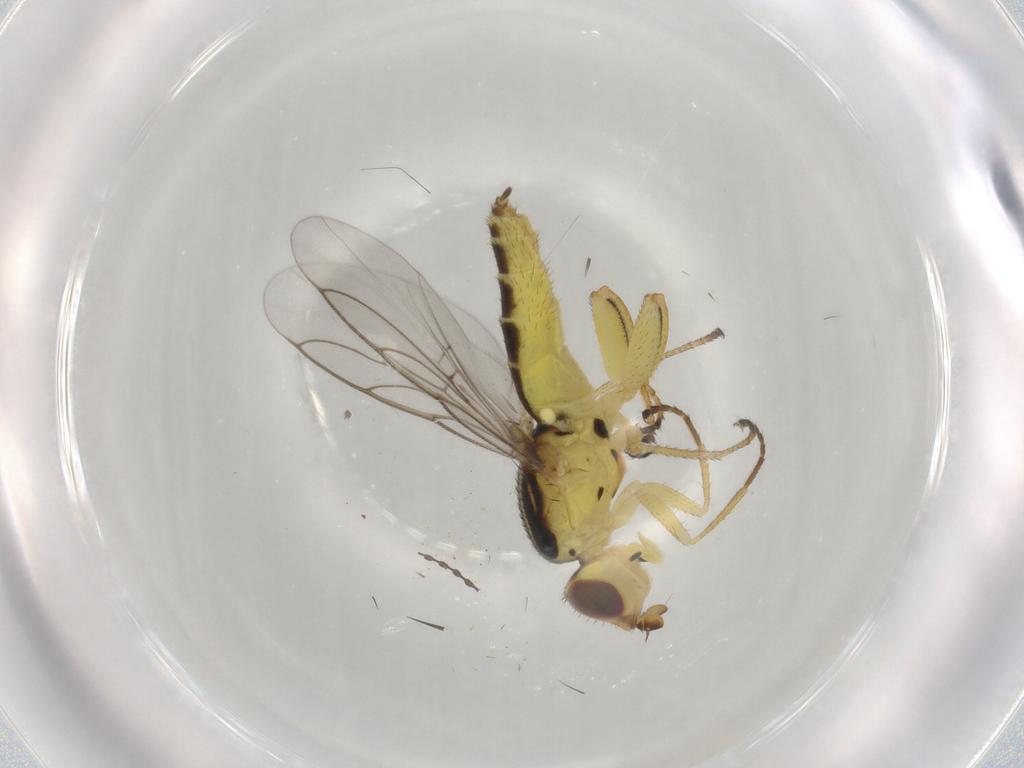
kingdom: Animalia
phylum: Arthropoda
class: Insecta
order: Diptera
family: Chloropidae
